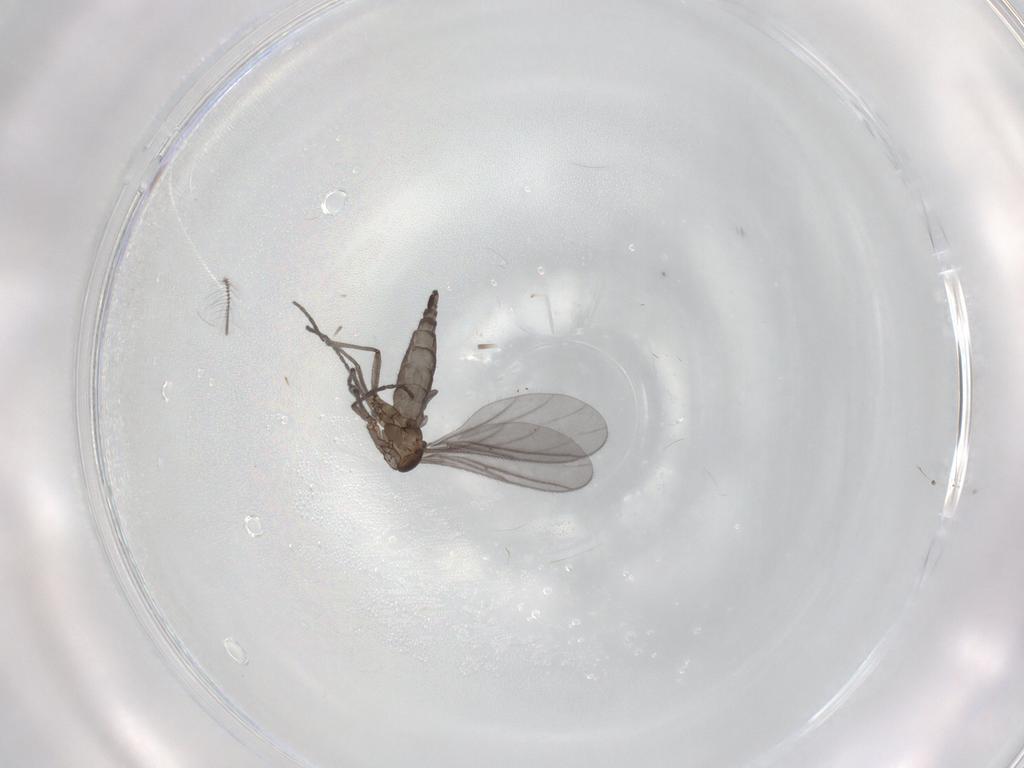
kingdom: Animalia
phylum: Arthropoda
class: Insecta
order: Diptera
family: Sciaridae
